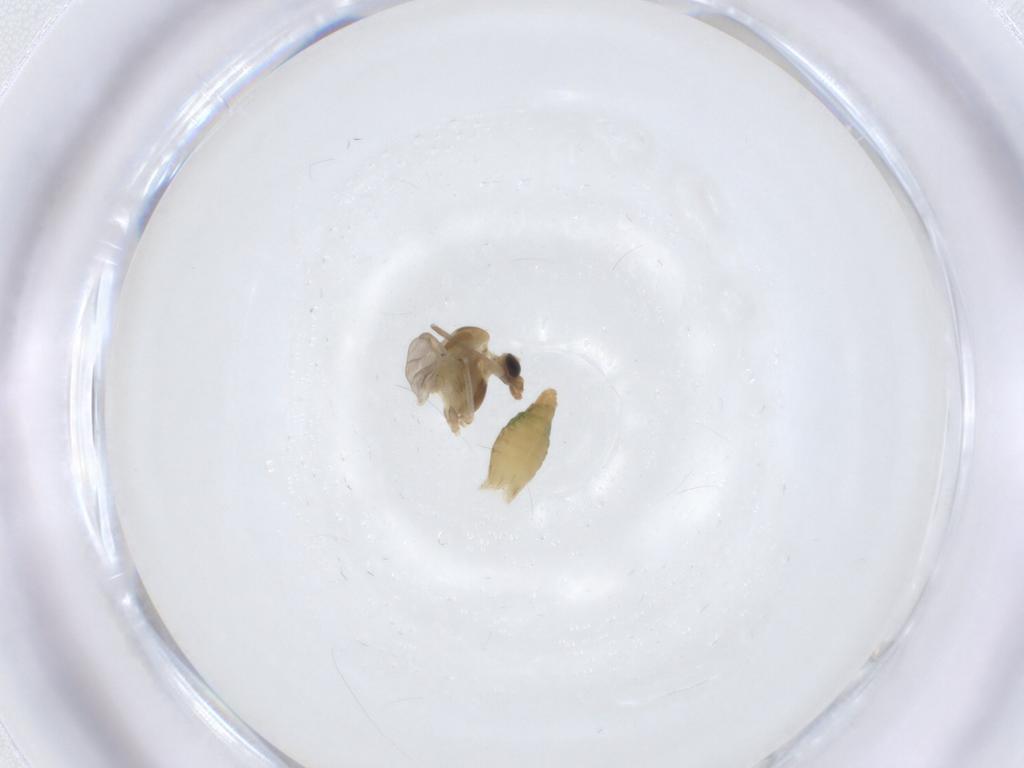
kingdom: Animalia
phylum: Arthropoda
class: Insecta
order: Diptera
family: Chironomidae
